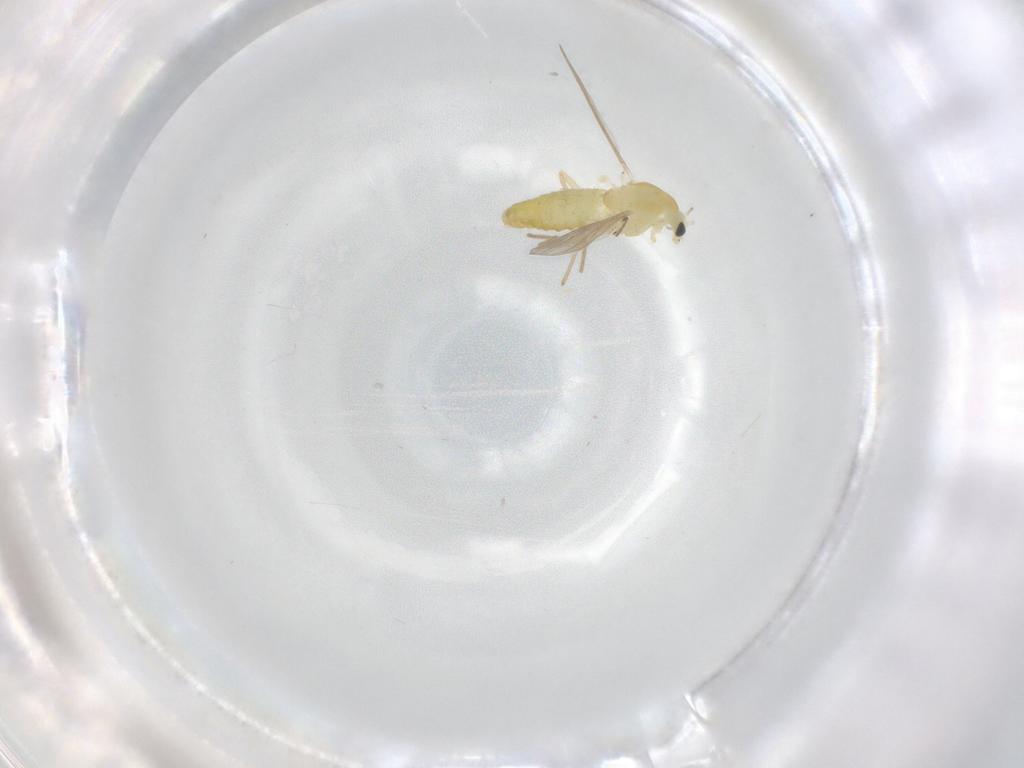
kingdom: Animalia
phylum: Arthropoda
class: Insecta
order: Diptera
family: Chironomidae
